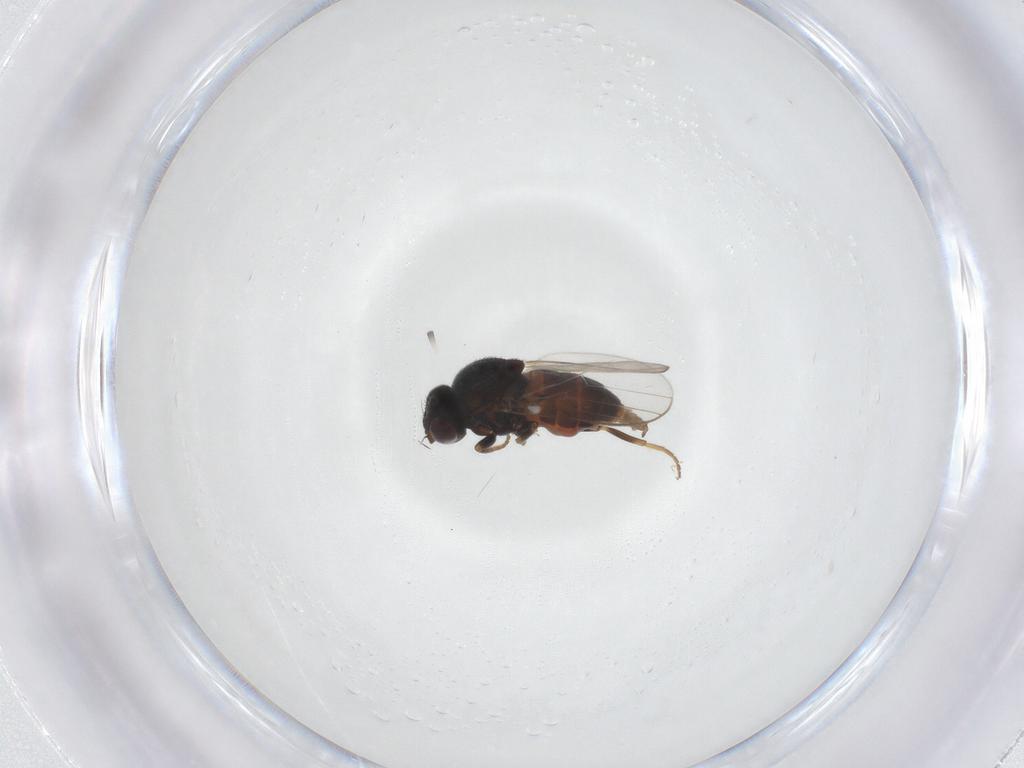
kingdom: Animalia
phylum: Arthropoda
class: Insecta
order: Diptera
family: Chloropidae
